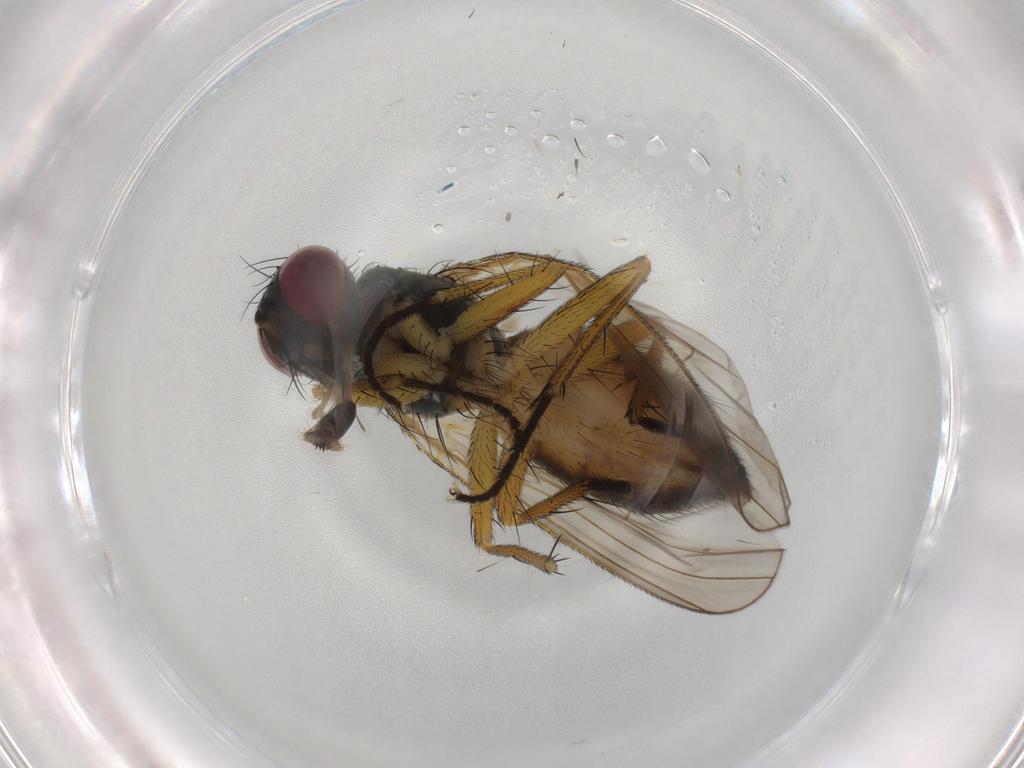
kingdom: Animalia
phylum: Arthropoda
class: Insecta
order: Diptera
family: Muscidae
